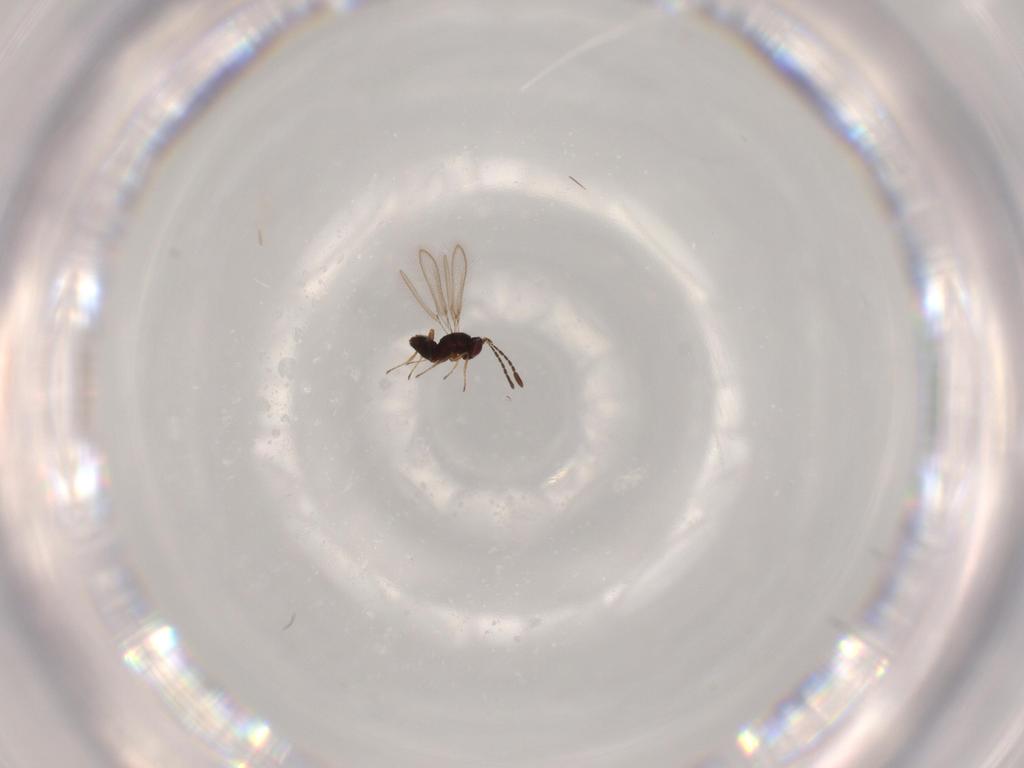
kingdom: Animalia
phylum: Arthropoda
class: Insecta
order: Hymenoptera
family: Mymaridae
